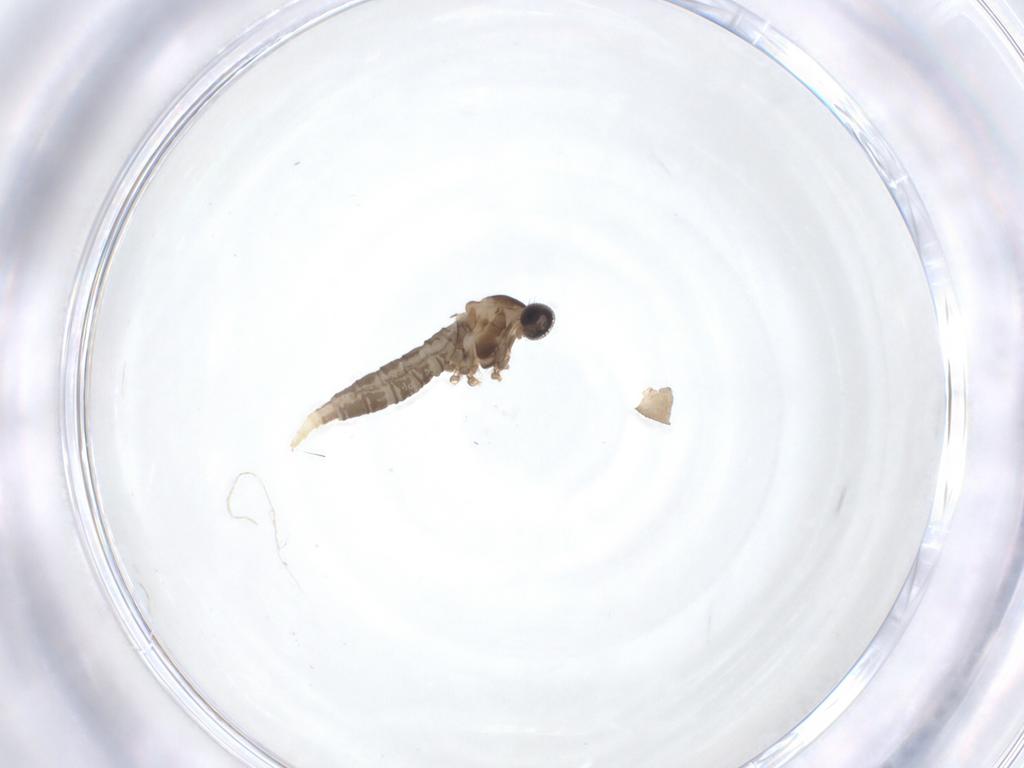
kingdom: Animalia
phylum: Arthropoda
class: Insecta
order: Diptera
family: Cecidomyiidae
